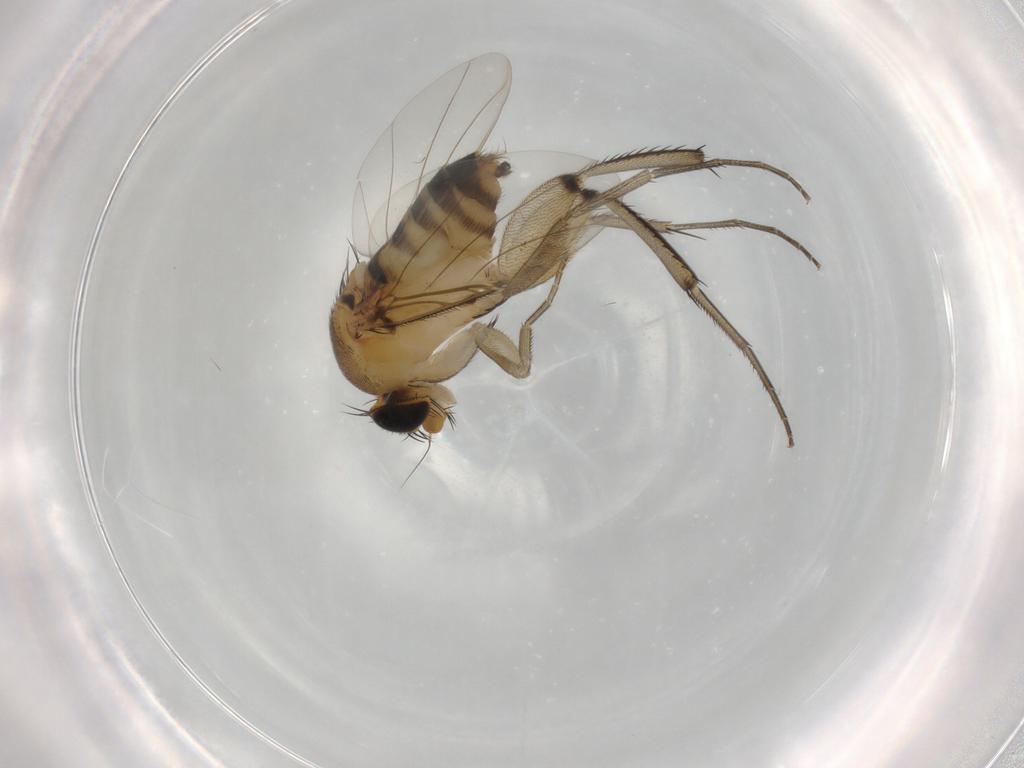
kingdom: Animalia
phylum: Arthropoda
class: Insecta
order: Diptera
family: Phoridae
